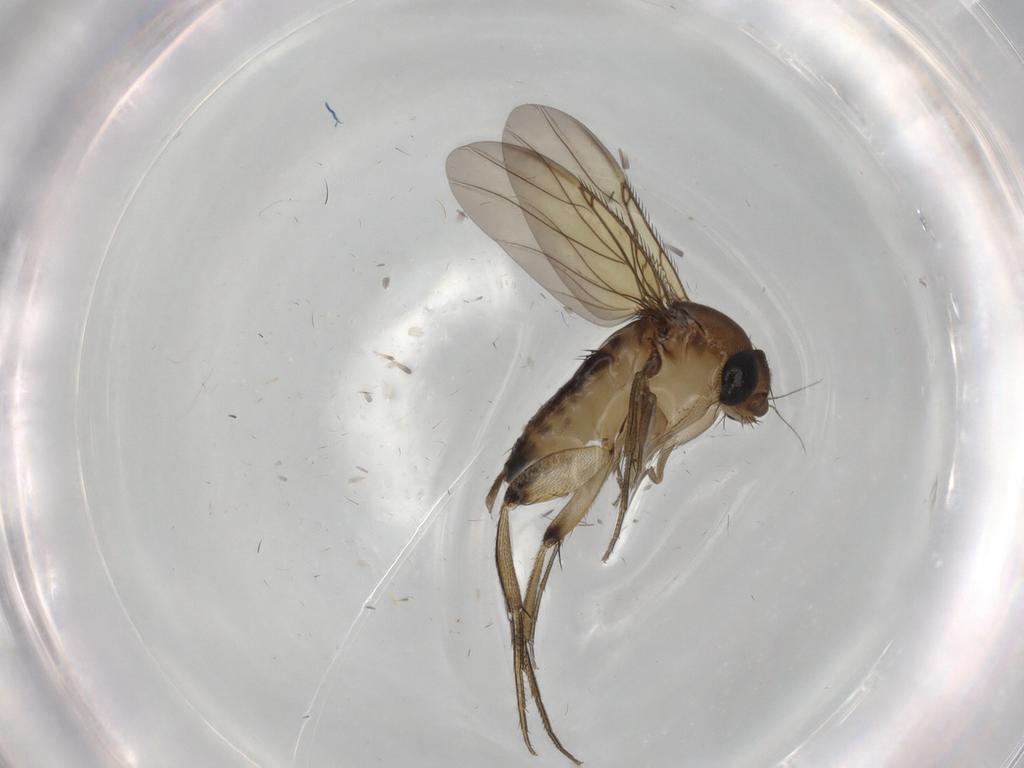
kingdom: Animalia
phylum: Arthropoda
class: Insecta
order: Diptera
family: Phoridae
